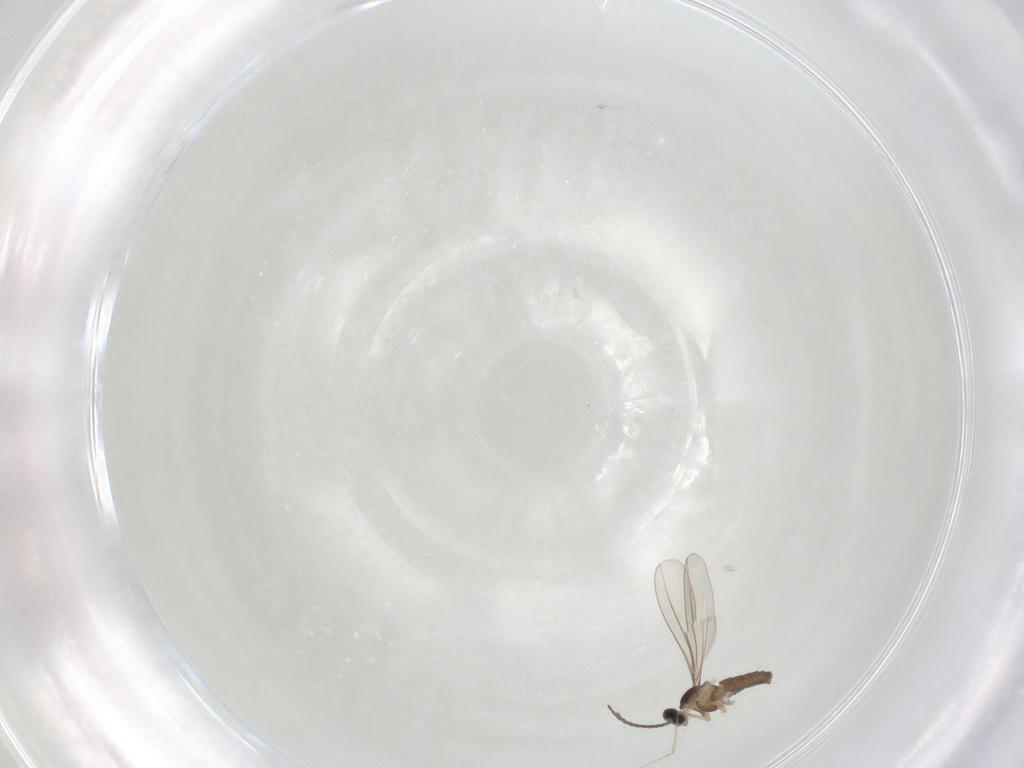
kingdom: Animalia
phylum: Arthropoda
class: Insecta
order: Diptera
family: Cecidomyiidae
